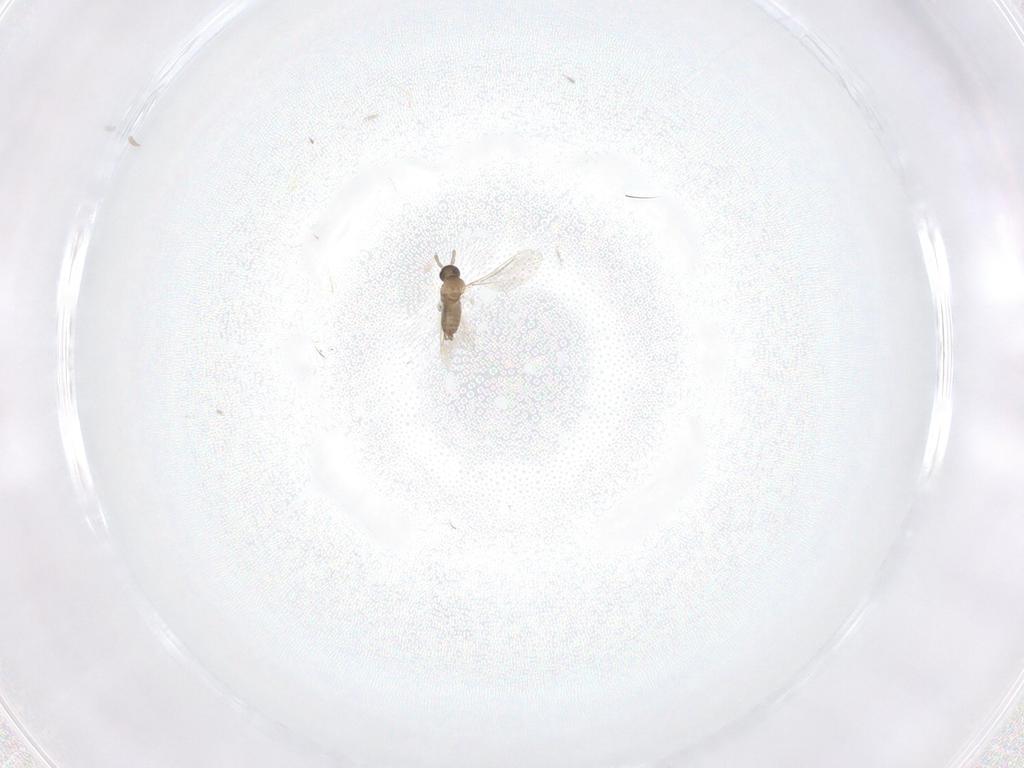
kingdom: Animalia
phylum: Arthropoda
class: Insecta
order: Diptera
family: Cecidomyiidae
